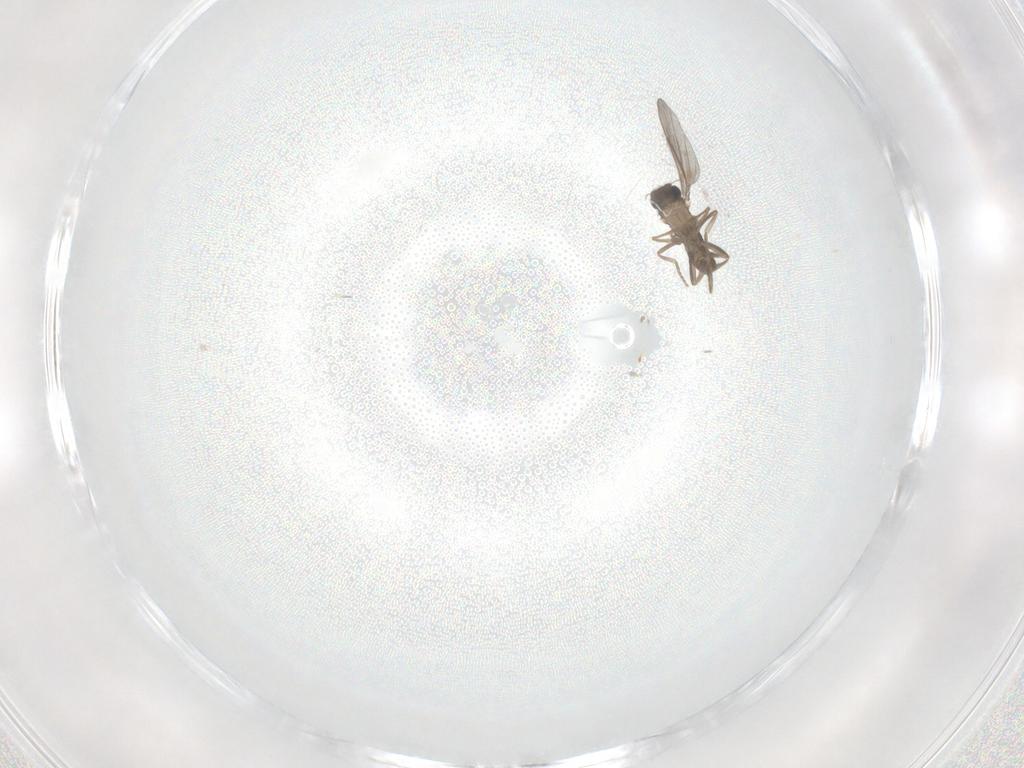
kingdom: Animalia
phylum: Arthropoda
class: Insecta
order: Diptera
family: Limoniidae
